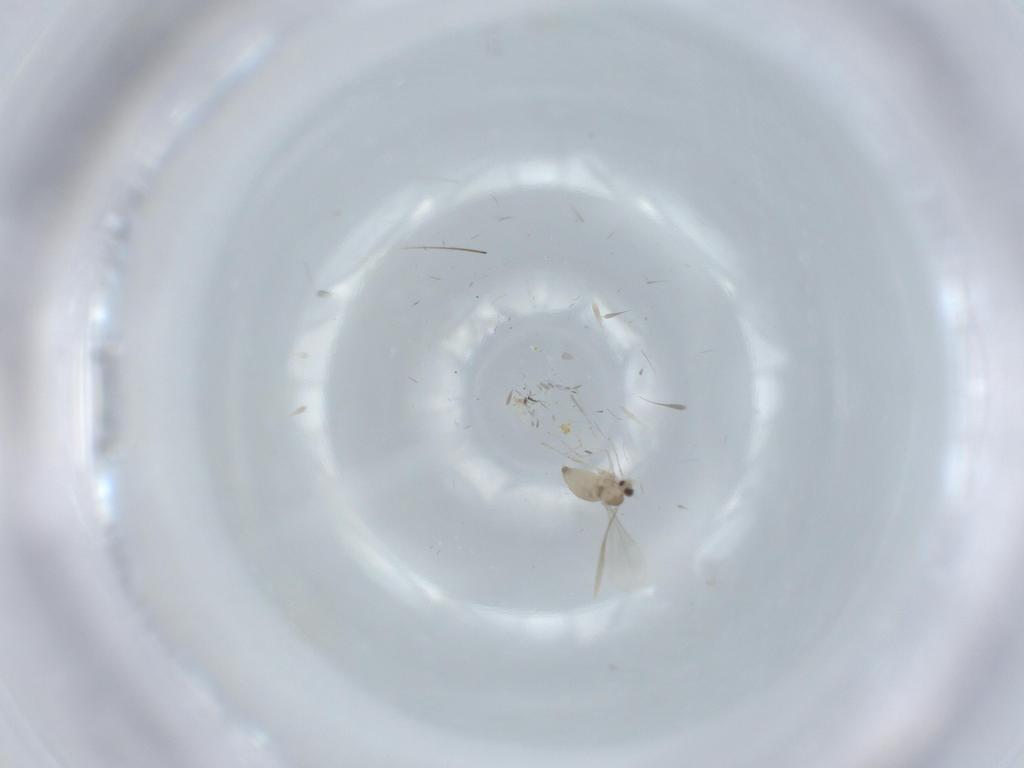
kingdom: Animalia
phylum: Arthropoda
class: Insecta
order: Diptera
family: Cecidomyiidae
